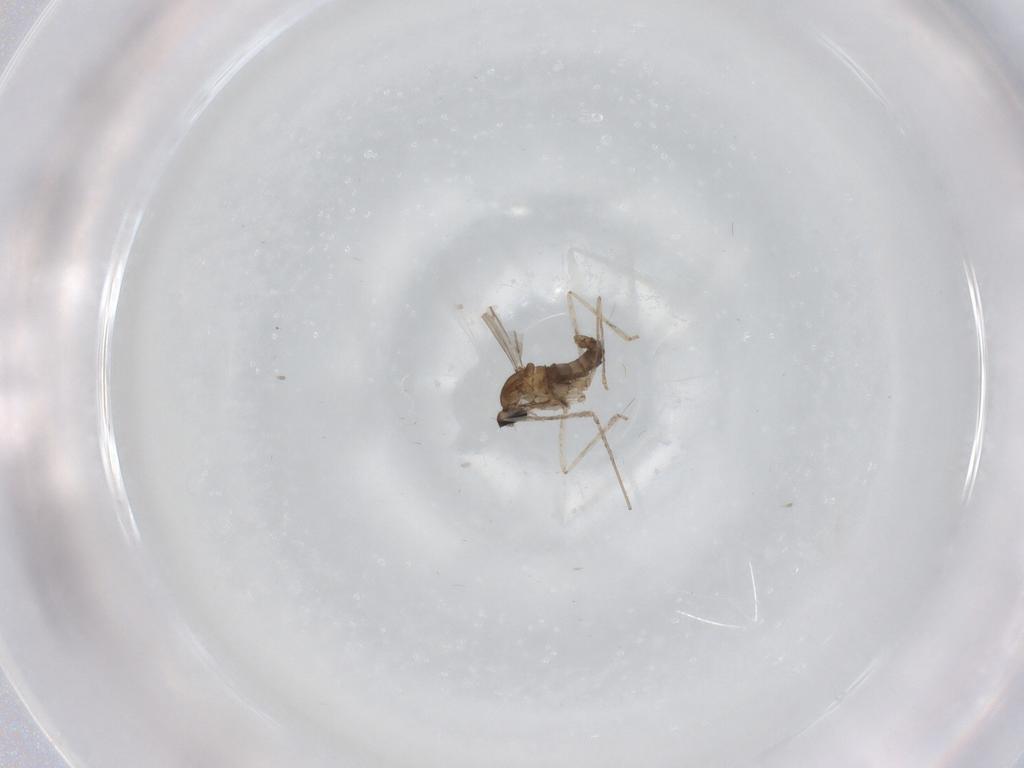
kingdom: Animalia
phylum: Arthropoda
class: Insecta
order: Diptera
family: Cecidomyiidae
